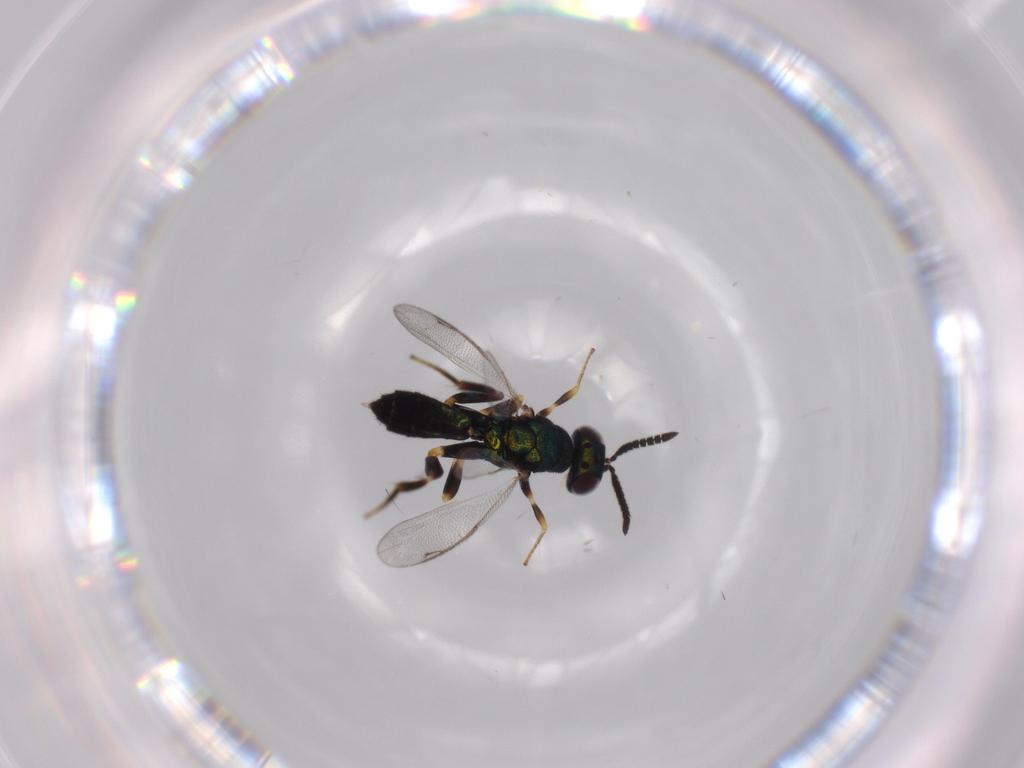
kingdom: Animalia
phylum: Arthropoda
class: Insecta
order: Hymenoptera
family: Cleonyminae
